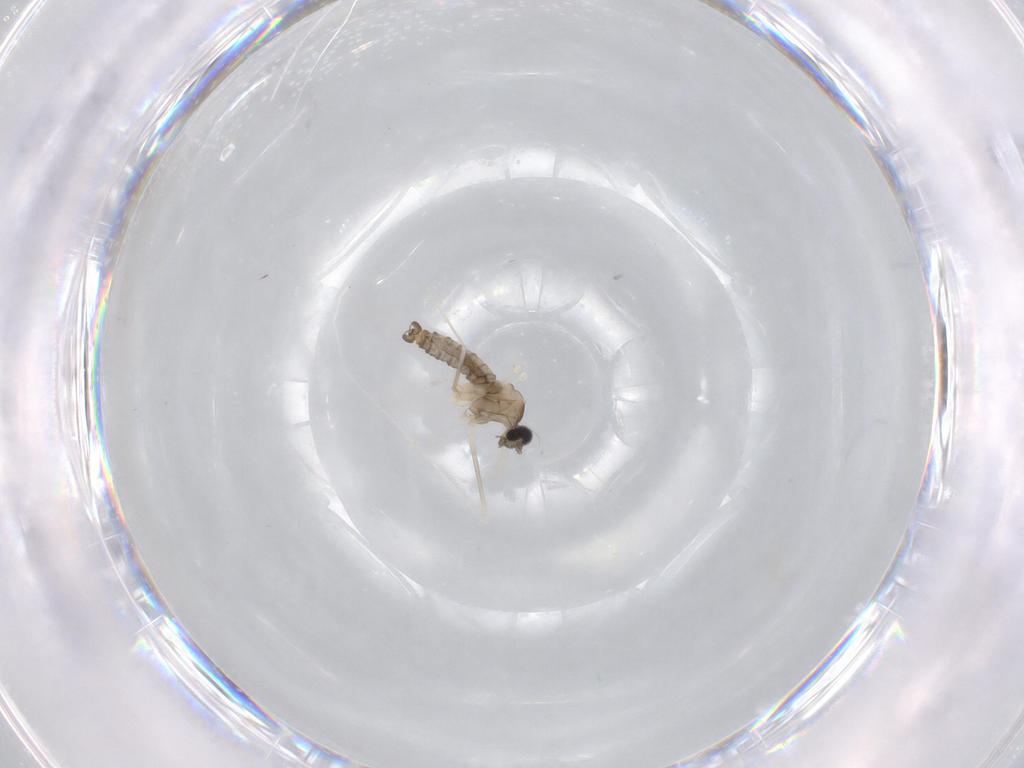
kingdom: Animalia
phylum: Arthropoda
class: Insecta
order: Diptera
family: Cecidomyiidae
